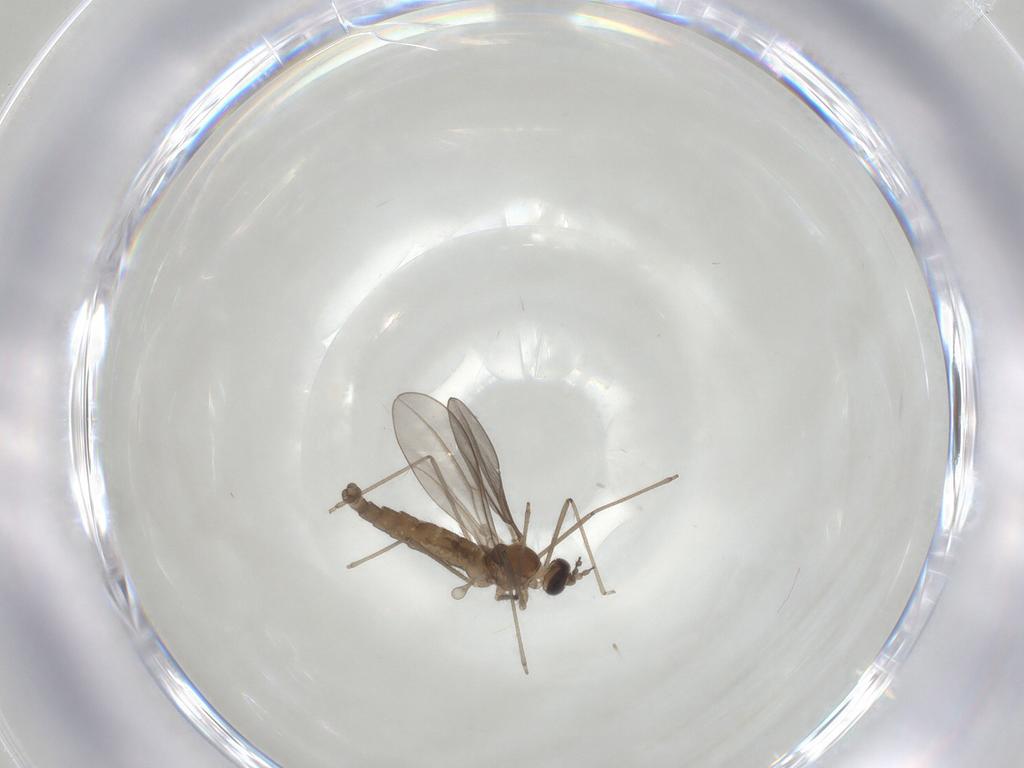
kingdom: Animalia
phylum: Arthropoda
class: Insecta
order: Diptera
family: Cecidomyiidae
